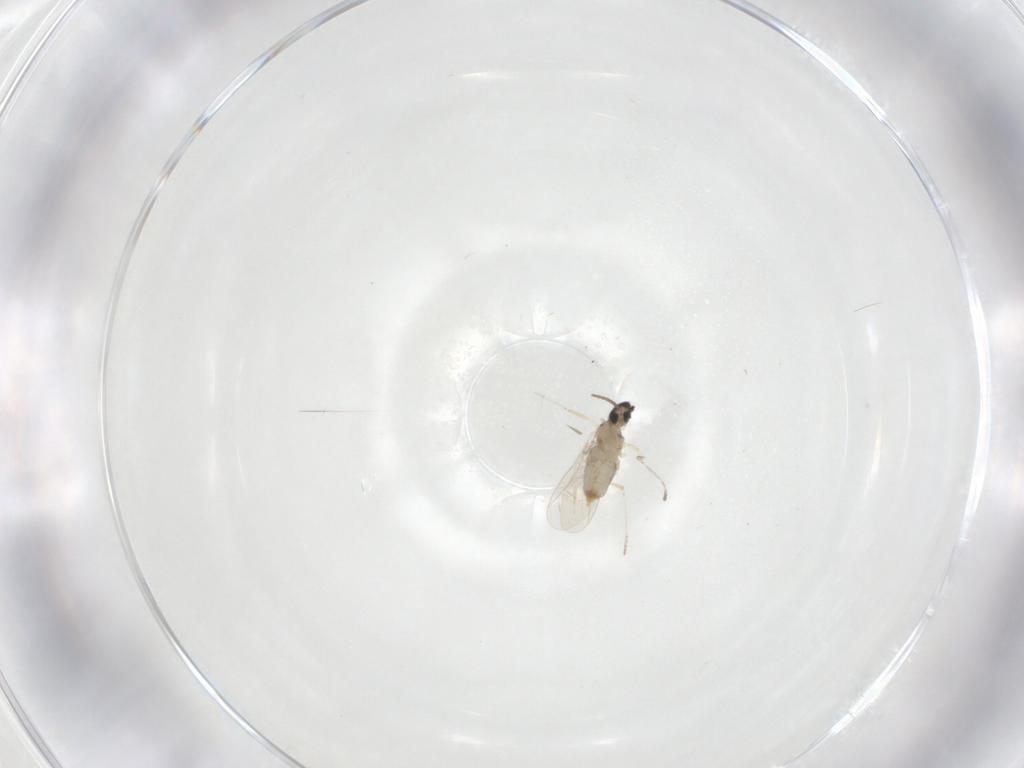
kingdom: Animalia
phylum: Arthropoda
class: Insecta
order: Diptera
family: Cecidomyiidae
